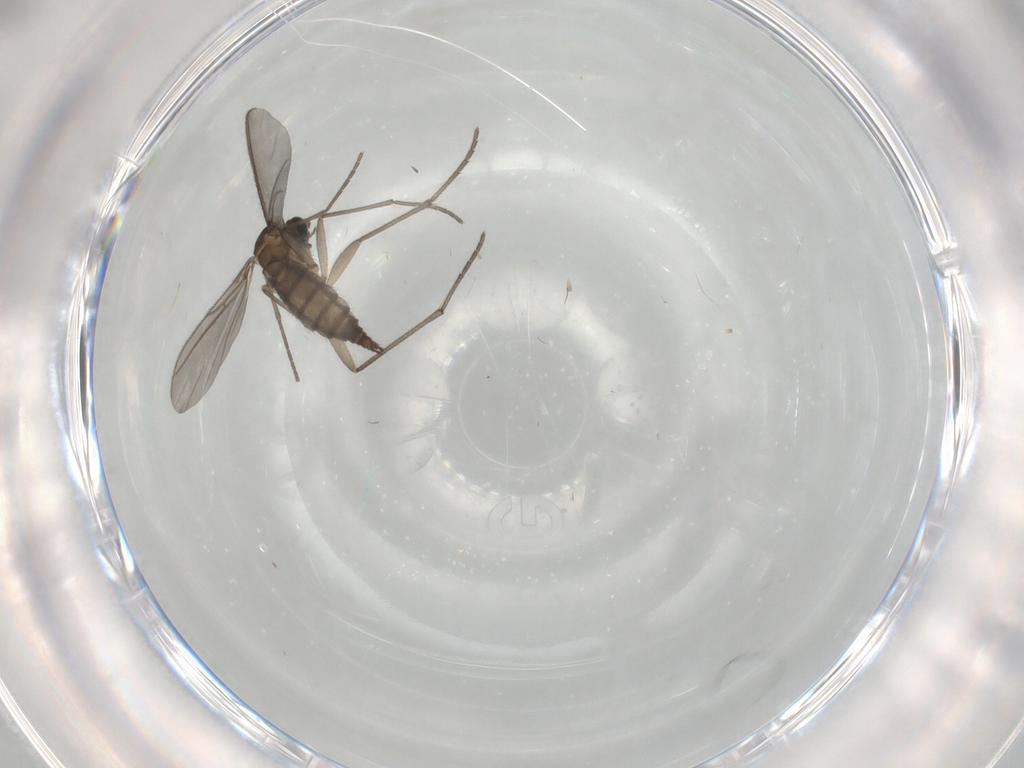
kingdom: Animalia
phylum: Arthropoda
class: Insecta
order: Diptera
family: Sciaridae
